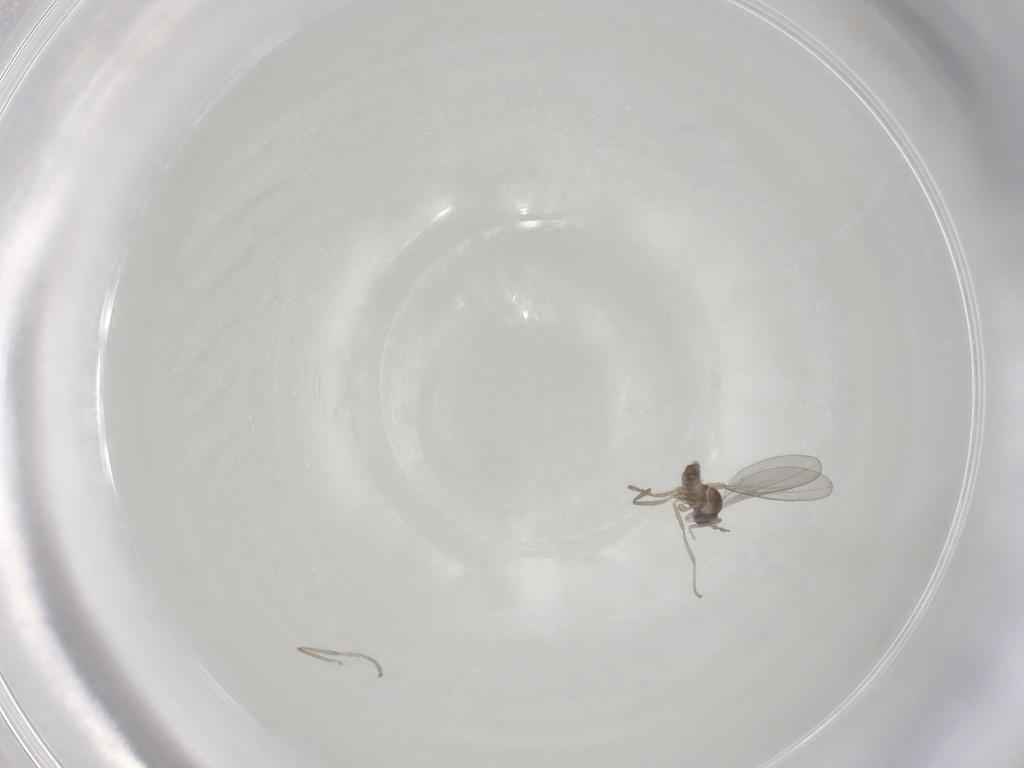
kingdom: Animalia
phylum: Arthropoda
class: Insecta
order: Diptera
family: Cecidomyiidae
